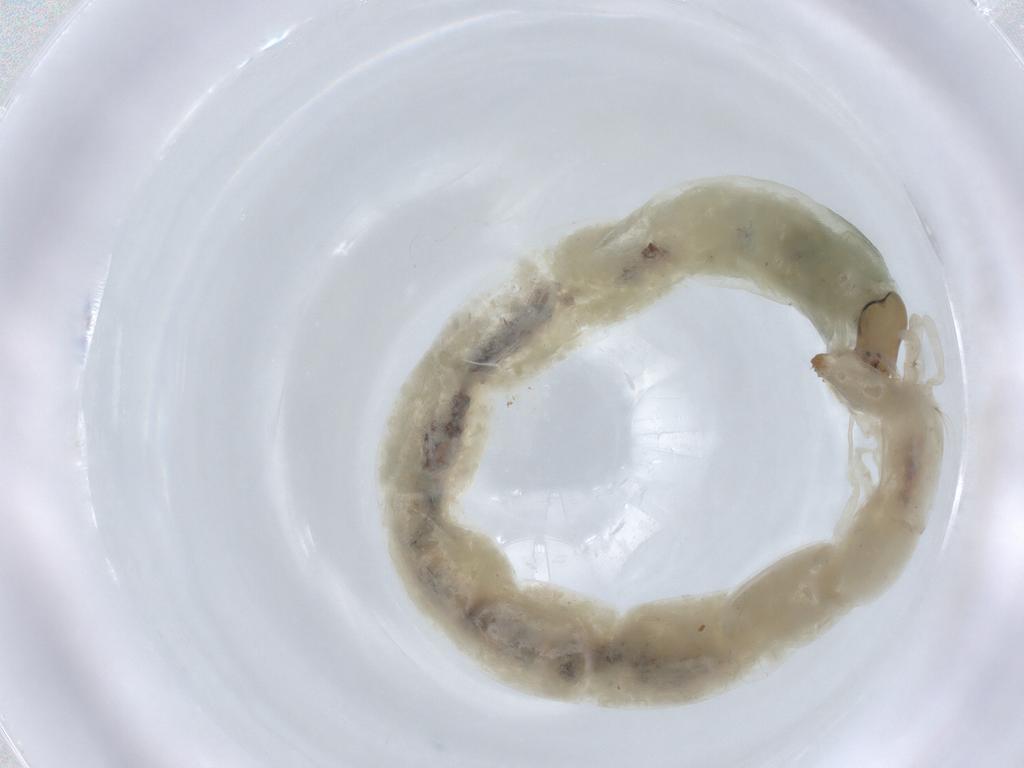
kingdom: Animalia
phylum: Arthropoda
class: Insecta
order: Diptera
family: Chironomidae
